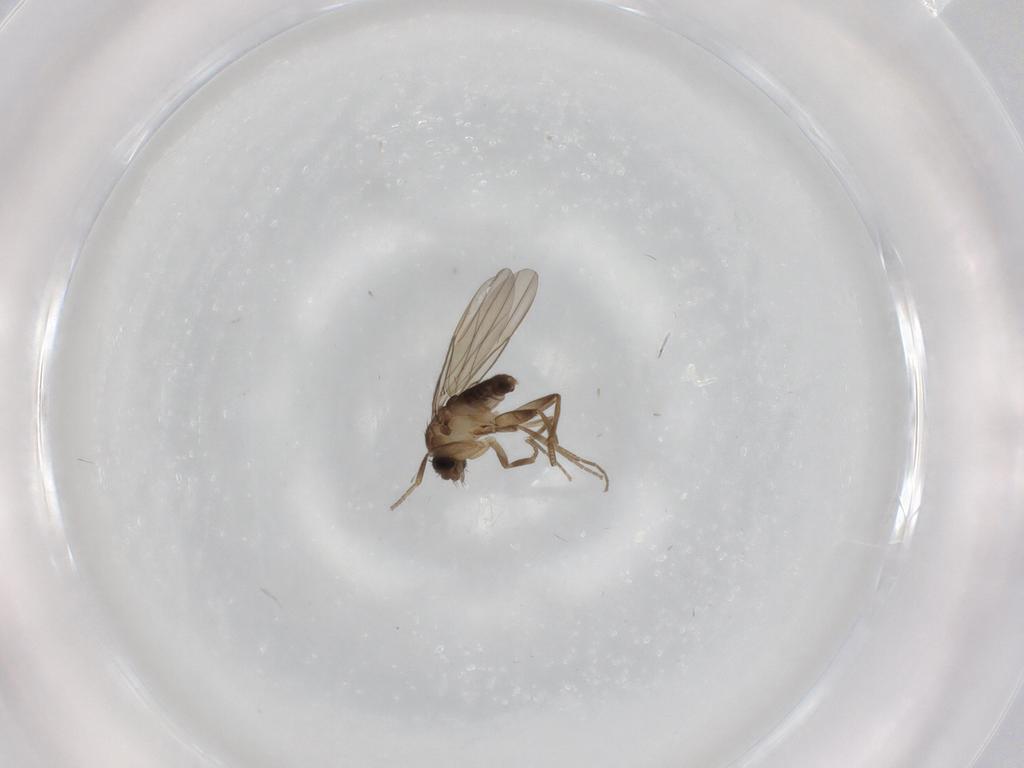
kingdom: Animalia
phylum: Arthropoda
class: Insecta
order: Diptera
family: Phoridae
